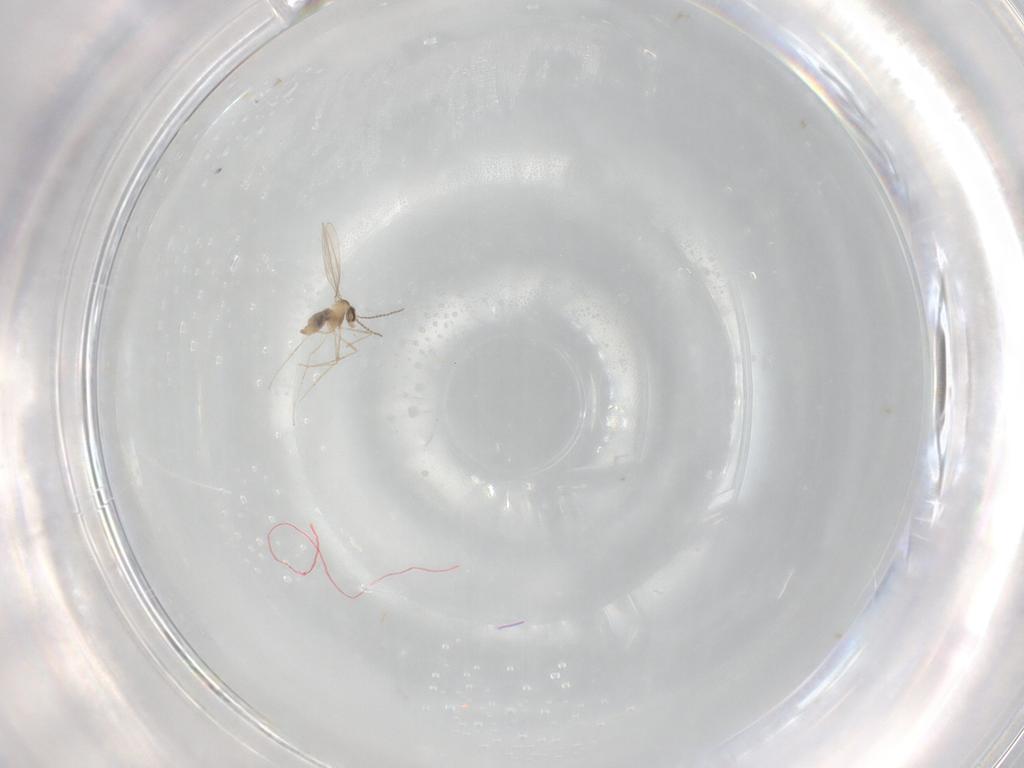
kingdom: Animalia
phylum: Arthropoda
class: Insecta
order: Diptera
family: Cecidomyiidae
